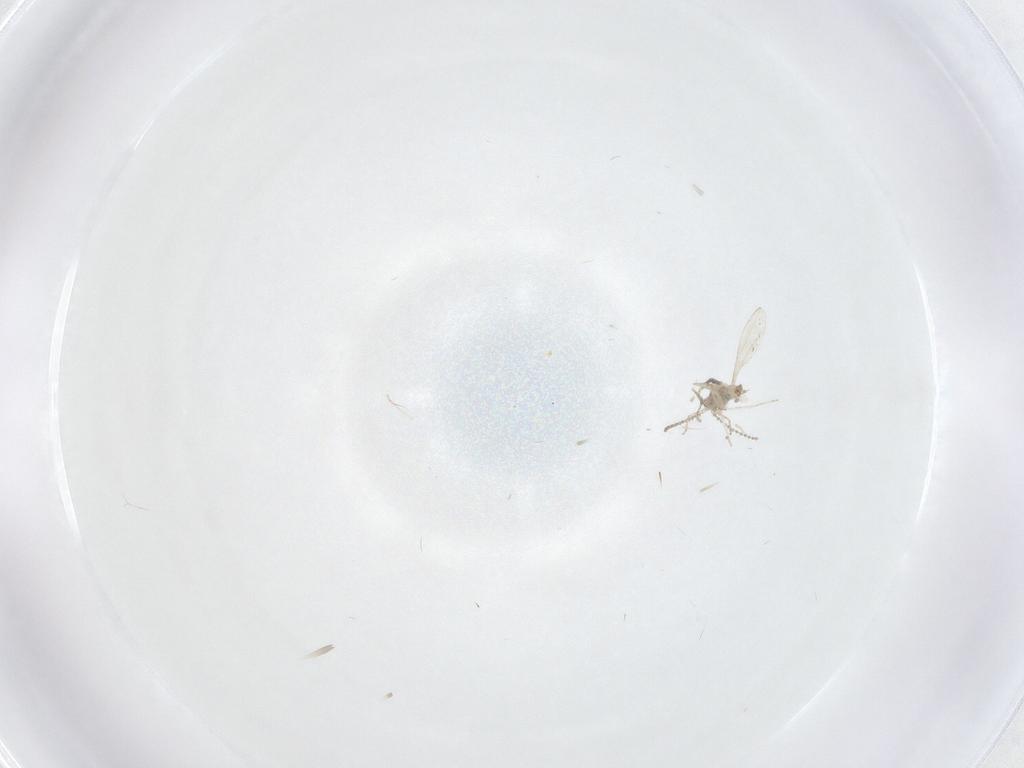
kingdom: Animalia
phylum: Arthropoda
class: Insecta
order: Diptera
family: Cecidomyiidae
